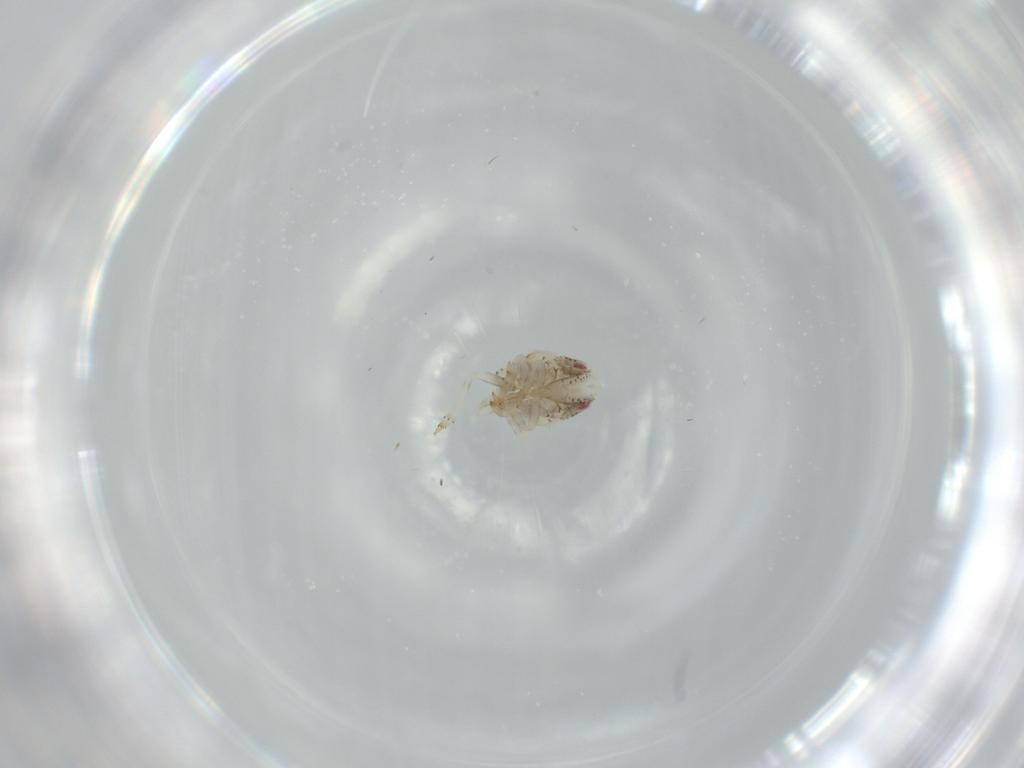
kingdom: Animalia
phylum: Arthropoda
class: Insecta
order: Hemiptera
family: Acanaloniidae
